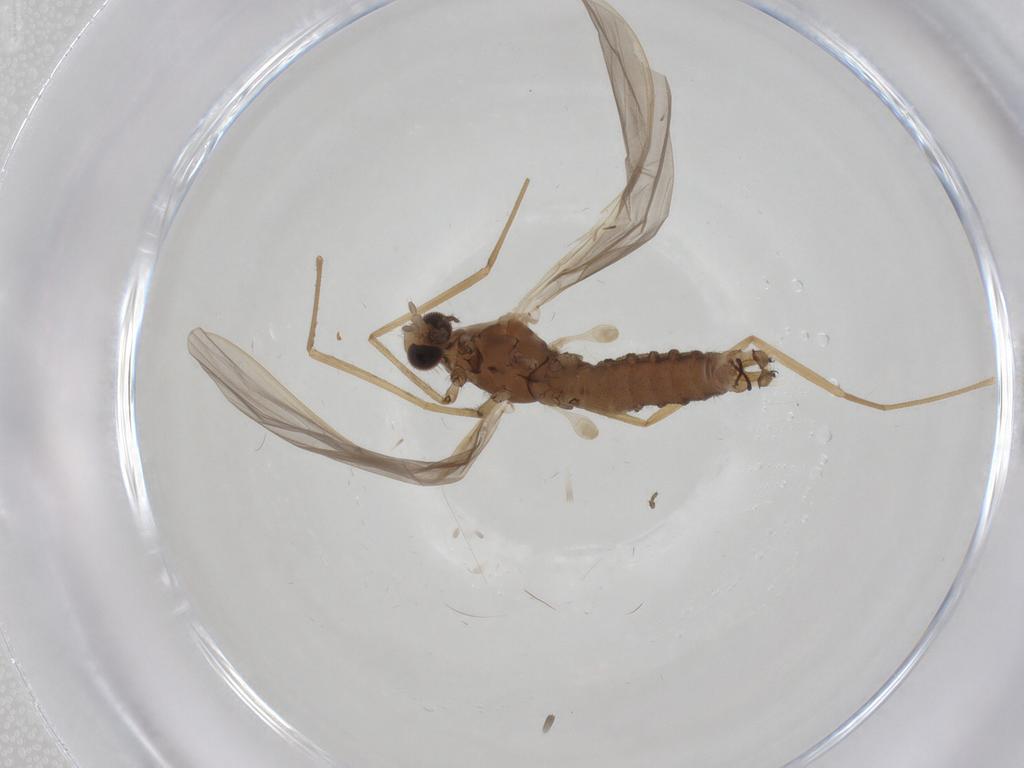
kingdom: Animalia
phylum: Arthropoda
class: Insecta
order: Diptera
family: Limoniidae
